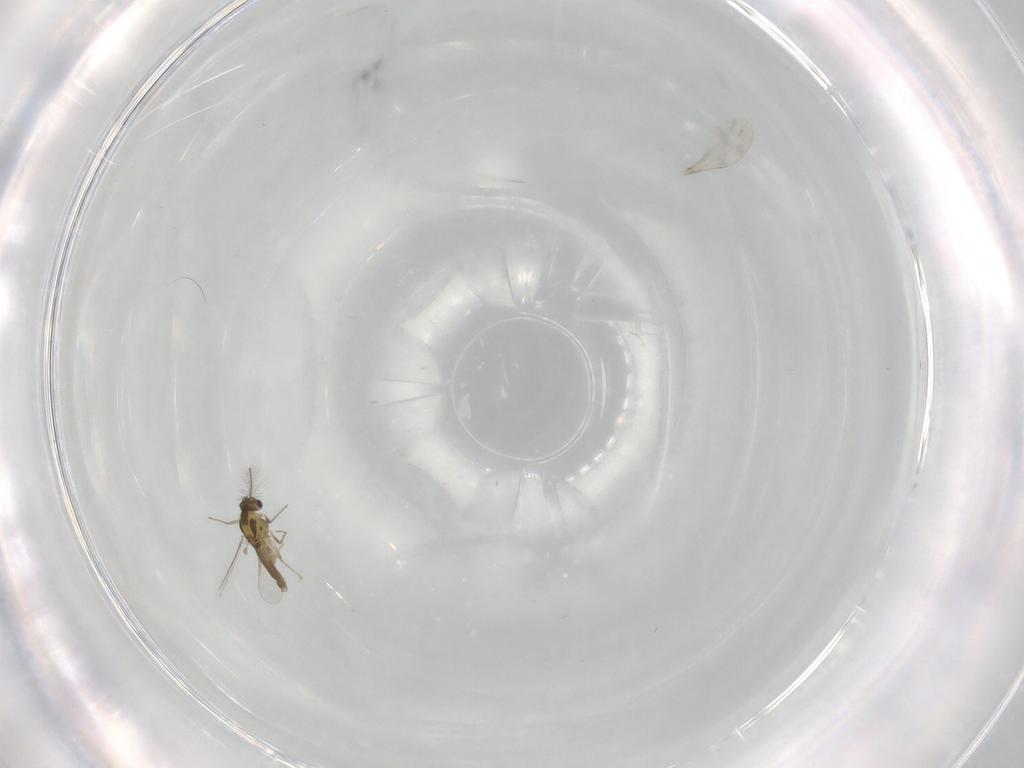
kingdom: Animalia
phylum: Arthropoda
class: Insecta
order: Diptera
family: Chironomidae
